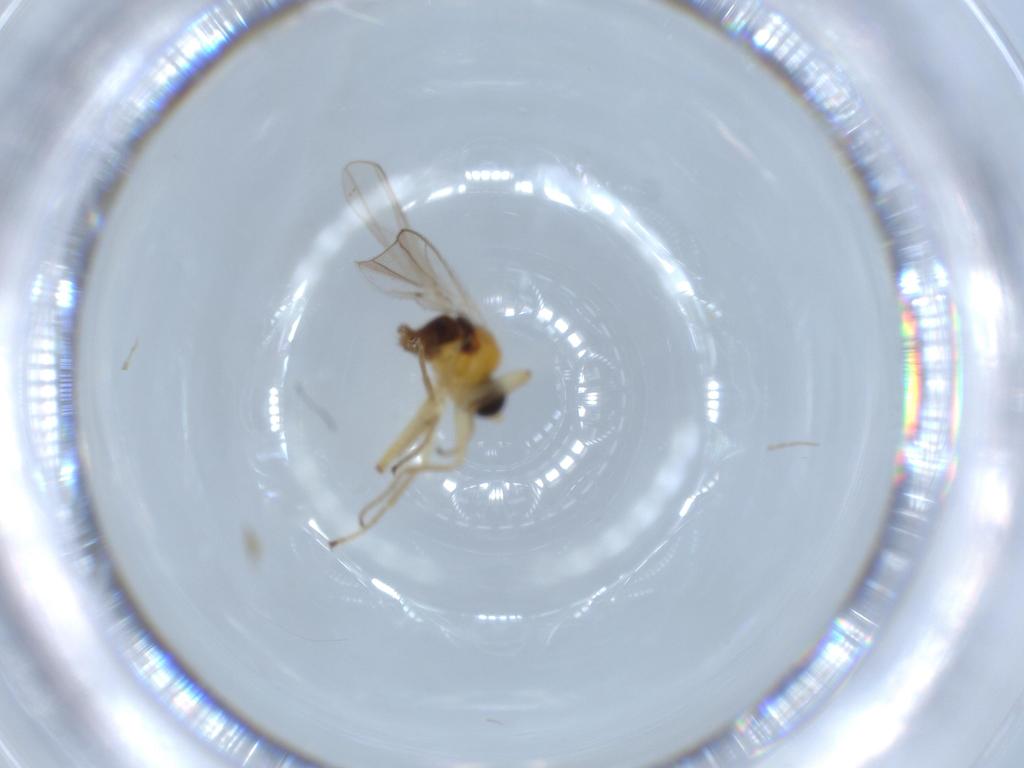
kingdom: Animalia
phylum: Arthropoda
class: Insecta
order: Diptera
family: Hybotidae
